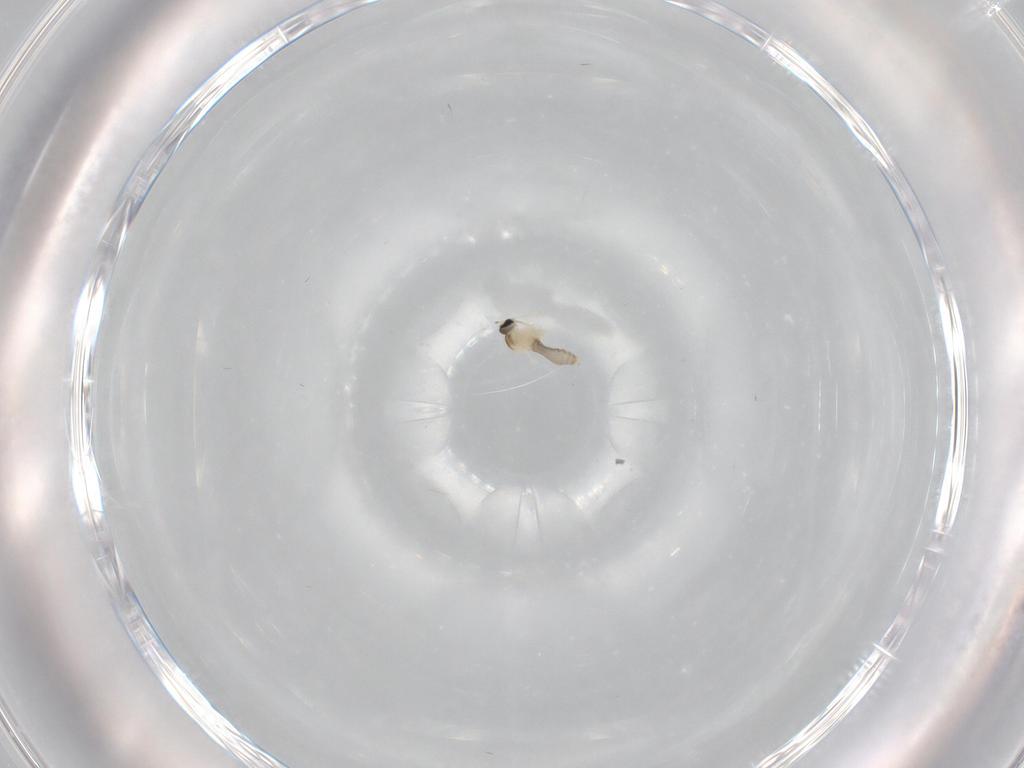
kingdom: Animalia
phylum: Arthropoda
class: Insecta
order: Diptera
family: Cecidomyiidae
